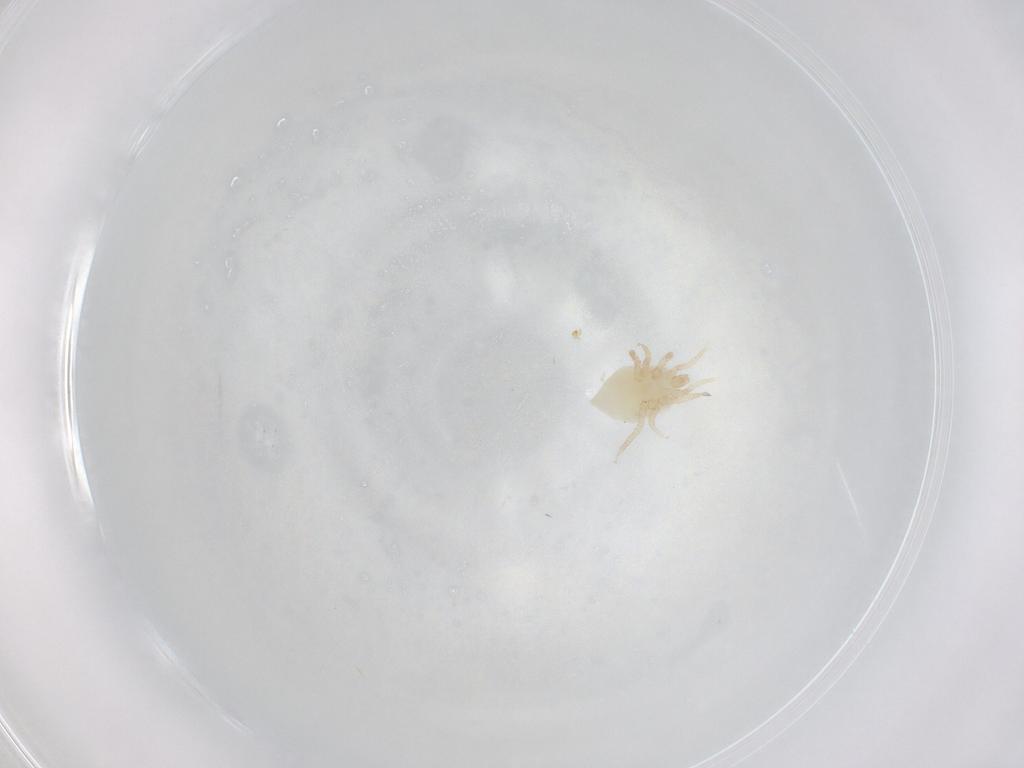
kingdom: Animalia
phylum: Arthropoda
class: Arachnida
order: Mesostigmata
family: Melicharidae
